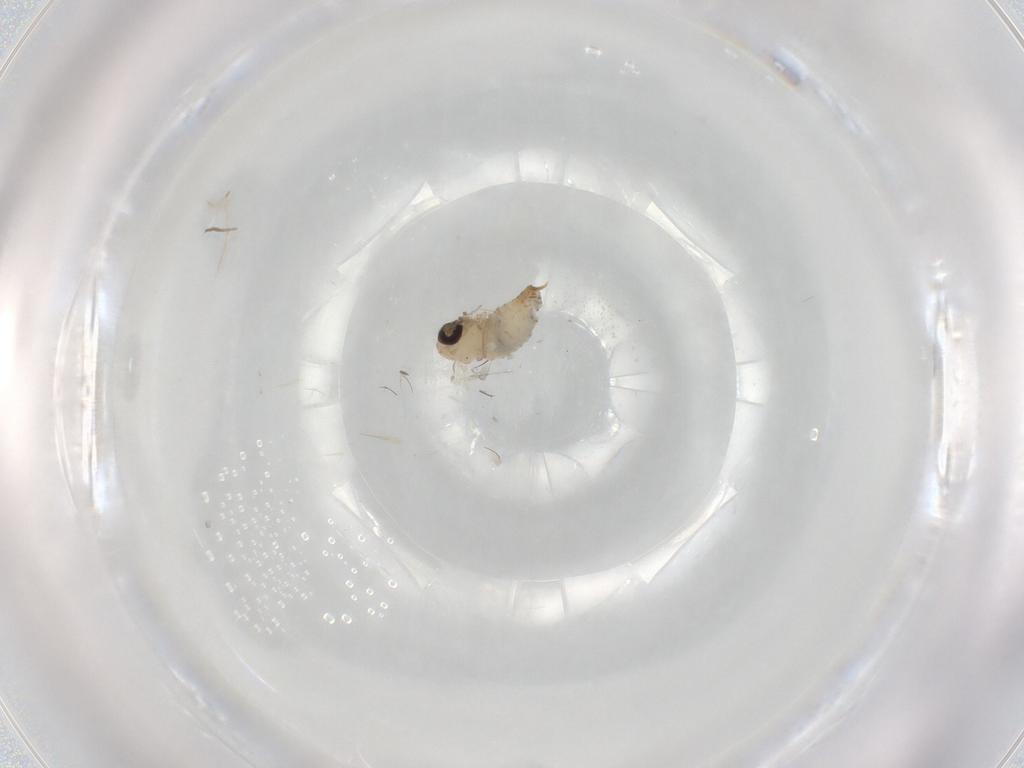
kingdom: Animalia
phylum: Arthropoda
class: Insecta
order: Diptera
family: Psychodidae
